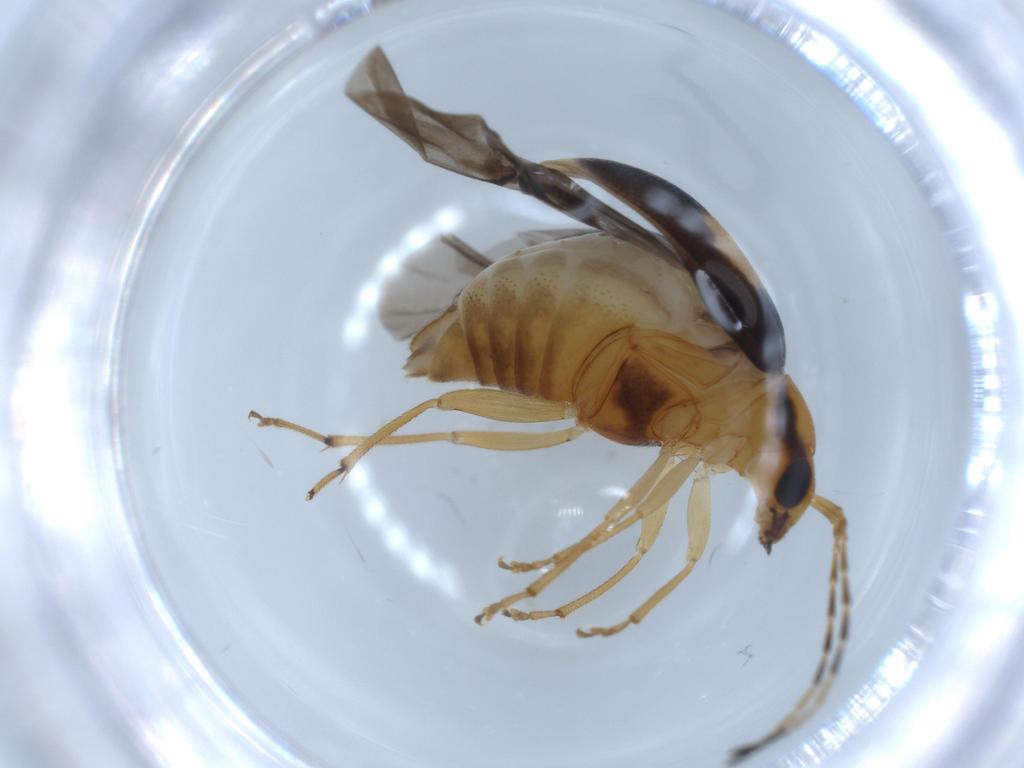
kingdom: Animalia
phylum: Arthropoda
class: Insecta
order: Coleoptera
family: Chrysomelidae
